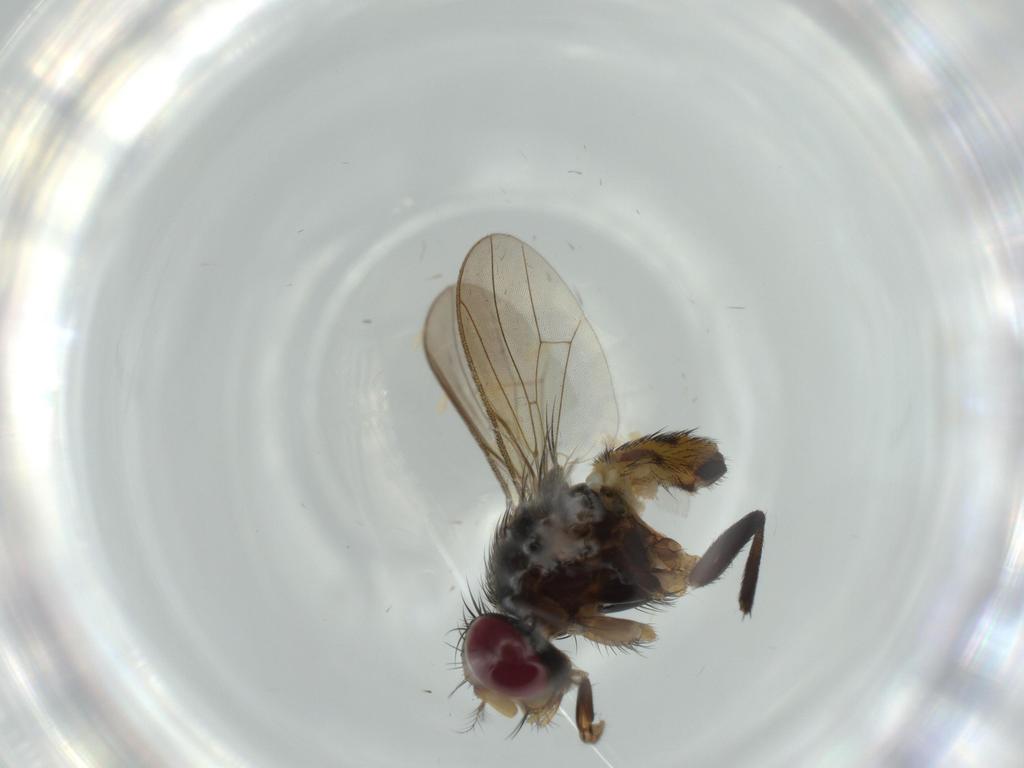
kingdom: Animalia
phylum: Arthropoda
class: Insecta
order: Diptera
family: Anthomyiidae
